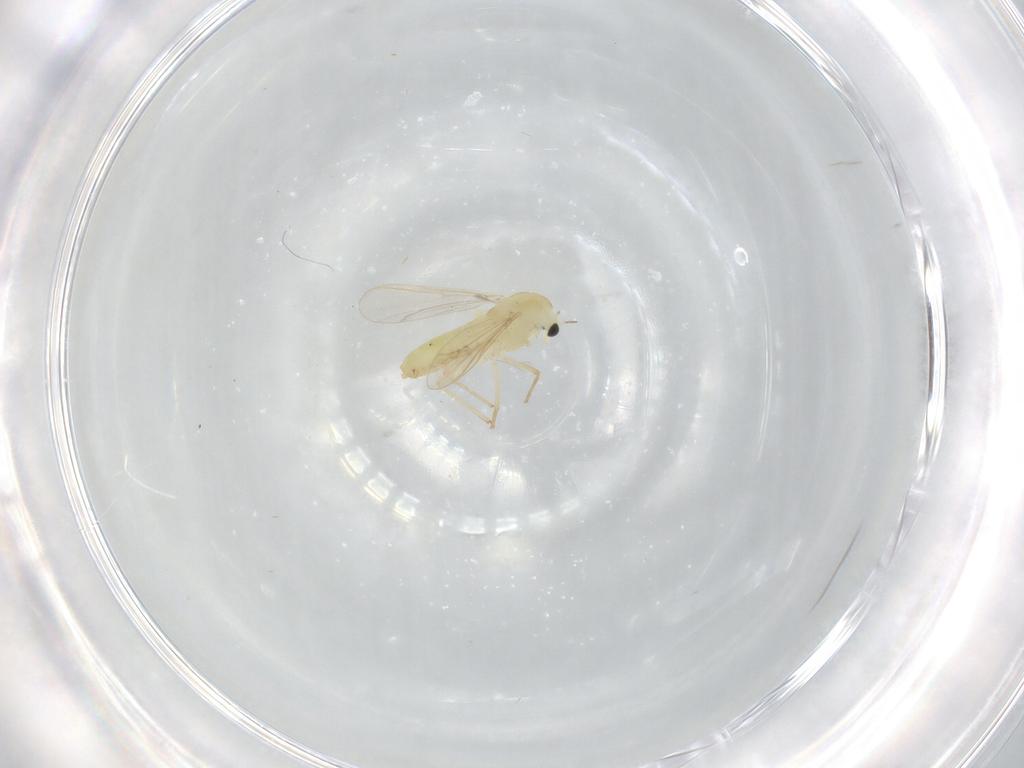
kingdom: Animalia
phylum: Arthropoda
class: Insecta
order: Diptera
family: Chironomidae
